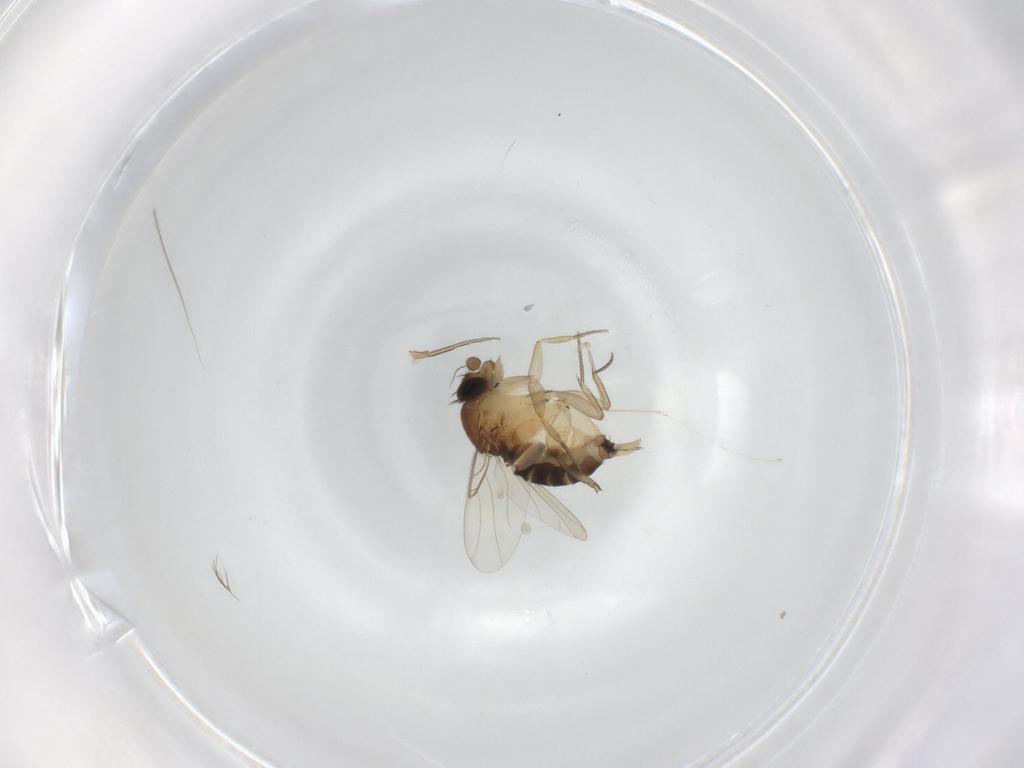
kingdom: Animalia
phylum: Arthropoda
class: Insecta
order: Diptera
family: Phoridae
